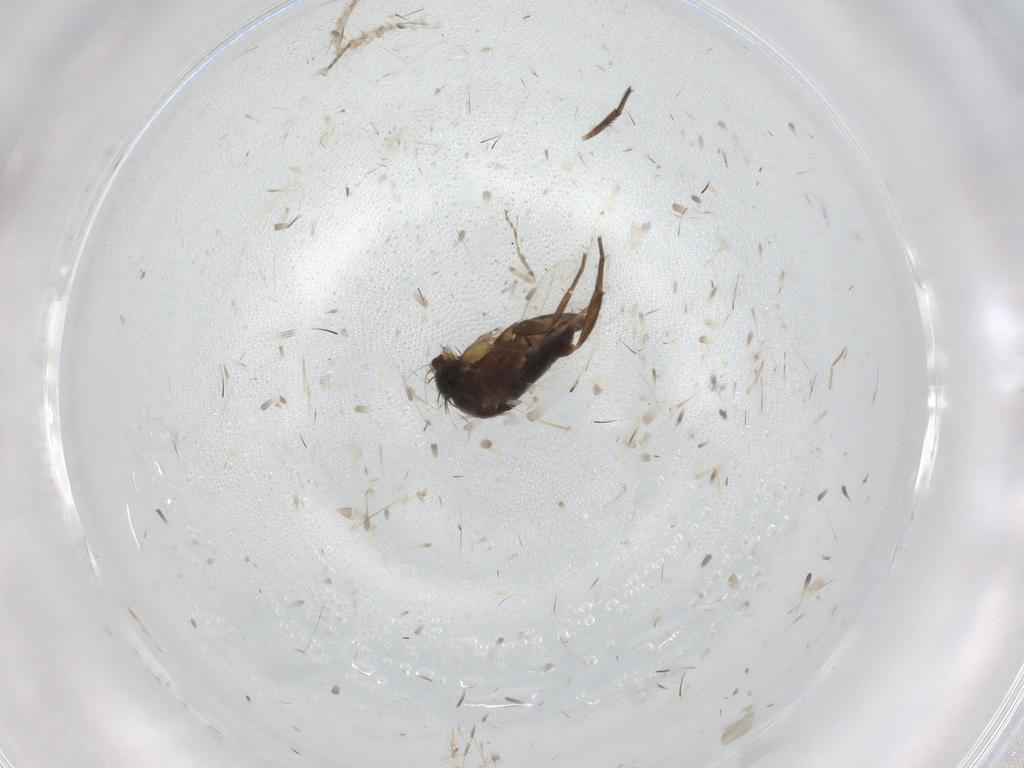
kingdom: Animalia
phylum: Arthropoda
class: Insecta
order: Diptera
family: Phoridae
